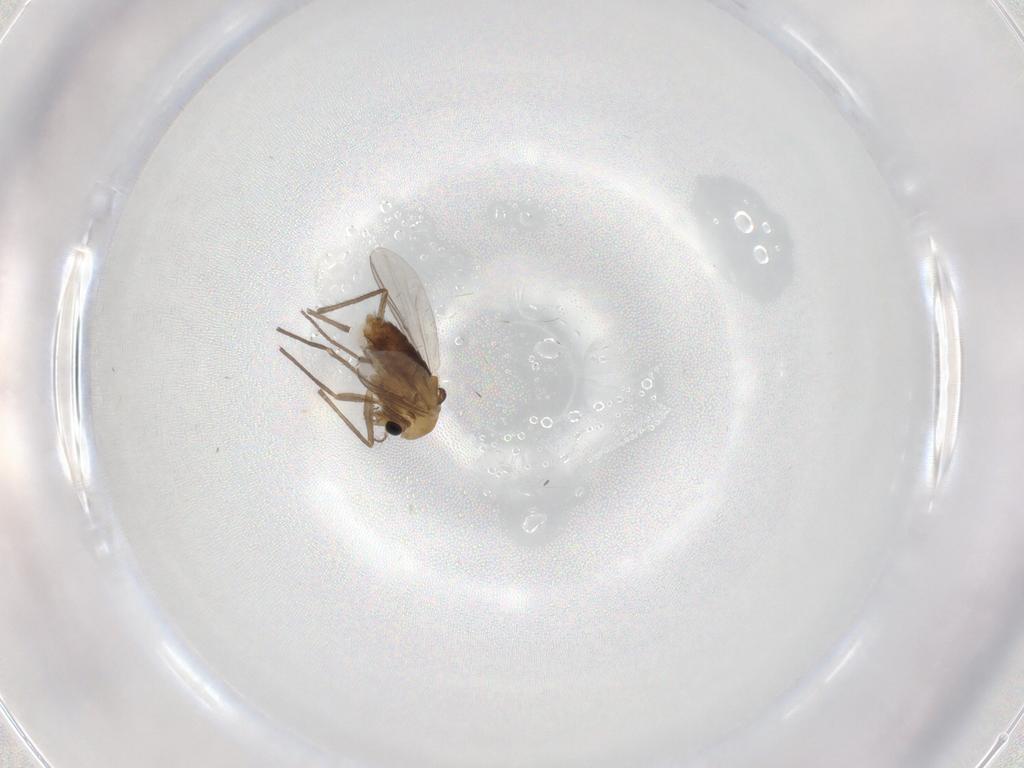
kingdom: Animalia
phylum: Arthropoda
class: Insecta
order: Diptera
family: Chironomidae
